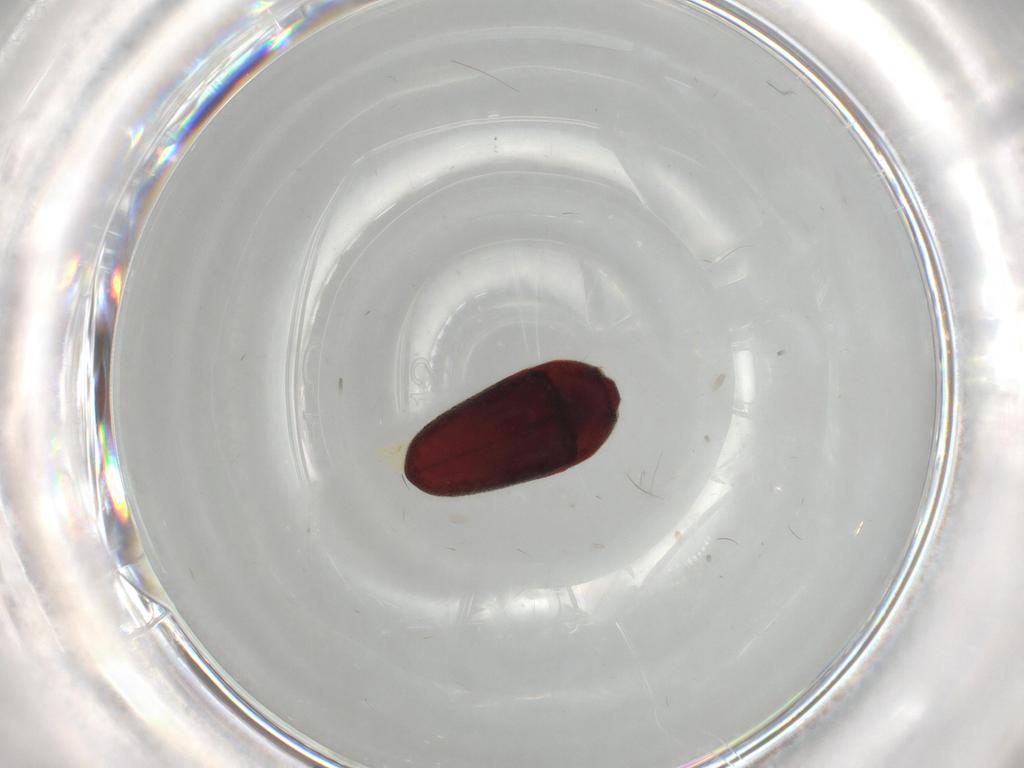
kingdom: Animalia
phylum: Arthropoda
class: Insecta
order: Coleoptera
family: Throscidae
